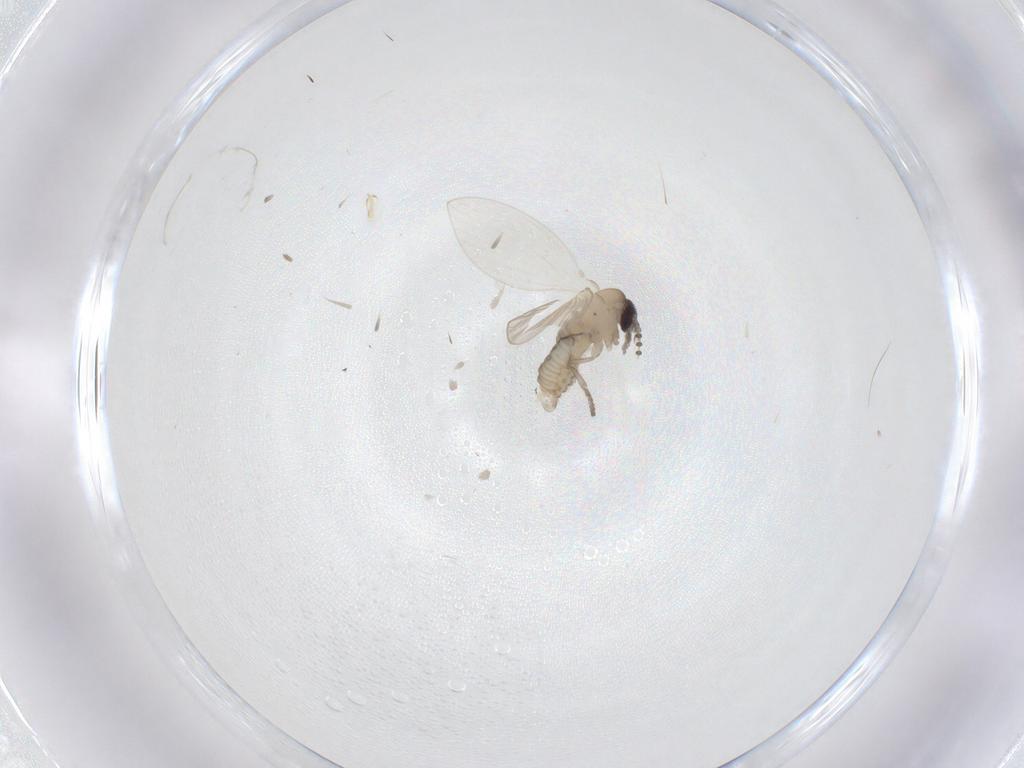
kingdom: Animalia
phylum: Arthropoda
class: Insecta
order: Diptera
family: Psychodidae
